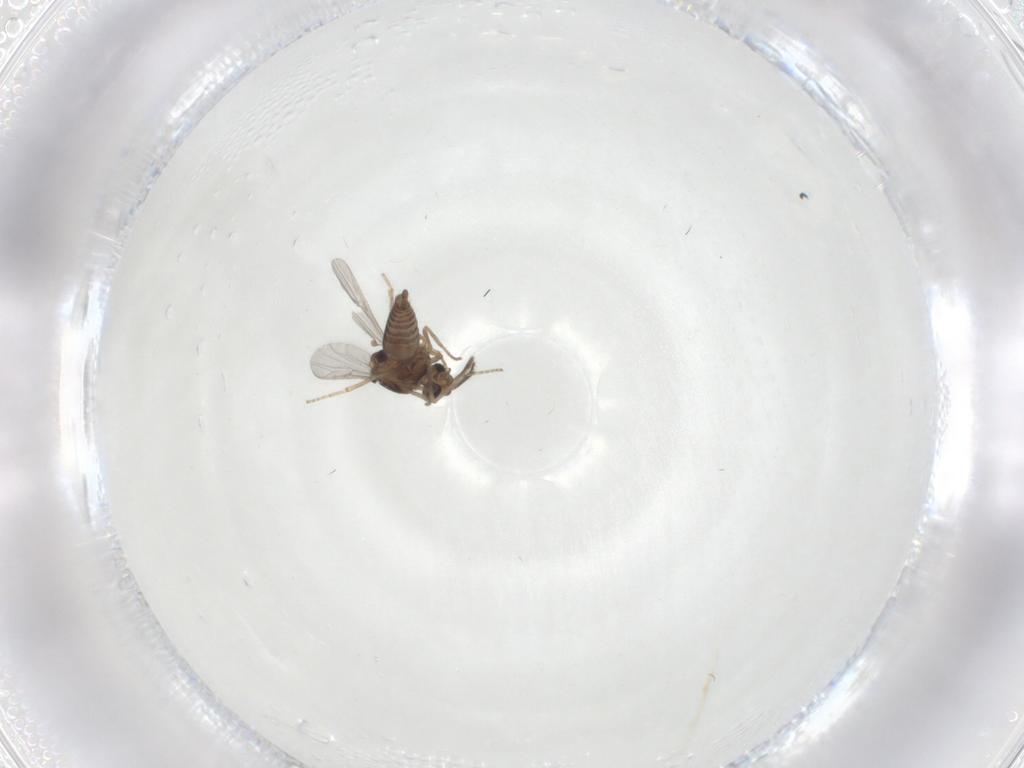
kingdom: Animalia
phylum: Arthropoda
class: Insecta
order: Diptera
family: Ceratopogonidae
